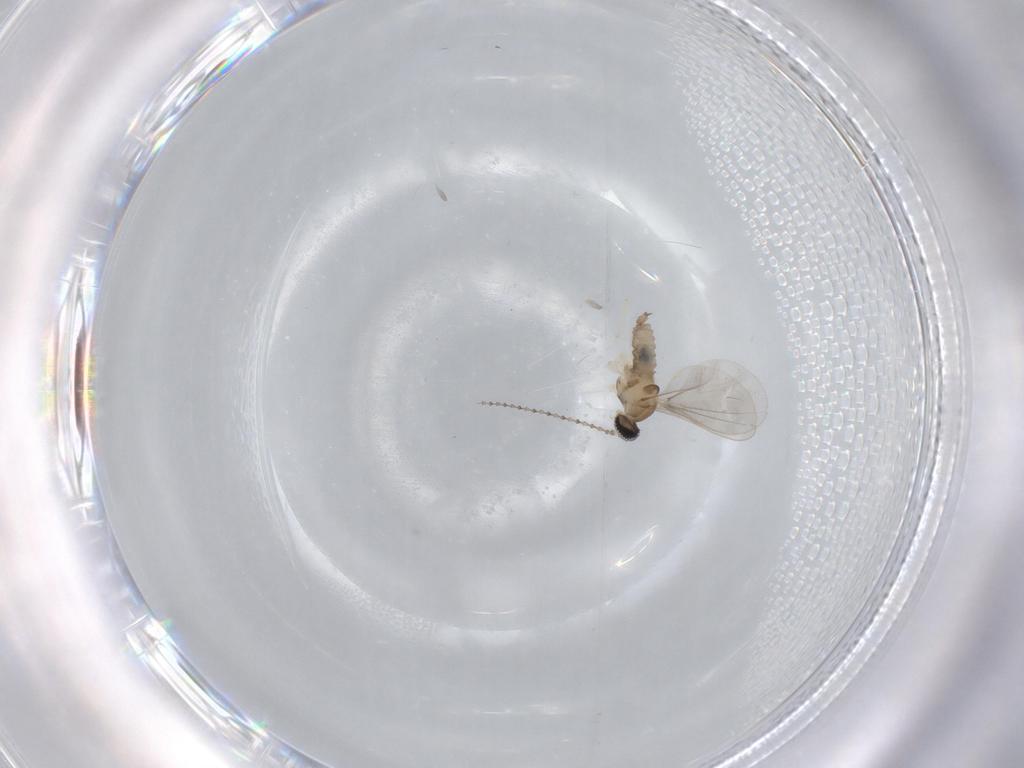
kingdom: Animalia
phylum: Arthropoda
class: Insecta
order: Diptera
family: Cecidomyiidae
